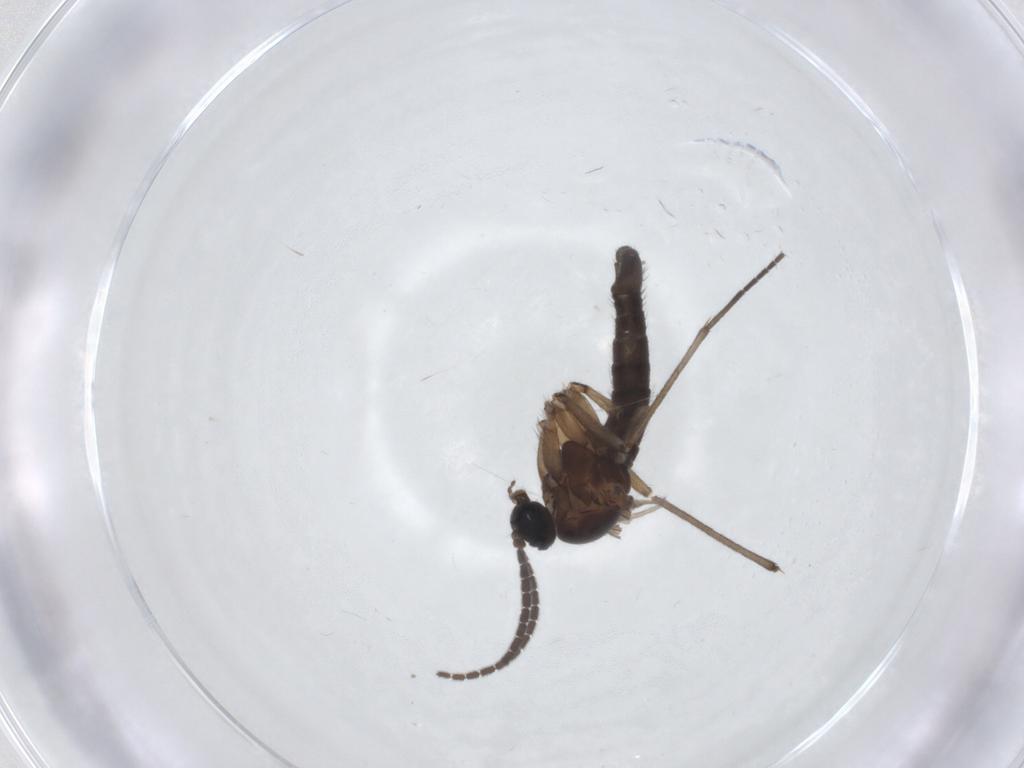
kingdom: Animalia
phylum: Arthropoda
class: Insecta
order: Diptera
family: Sciaridae
